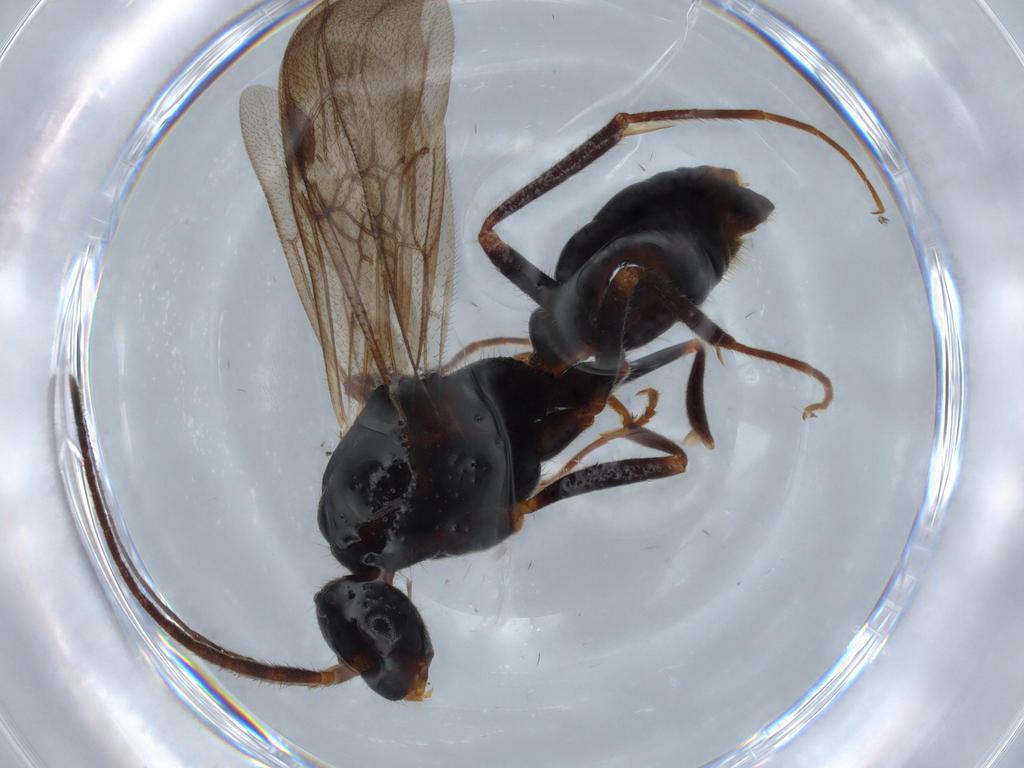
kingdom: Animalia
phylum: Arthropoda
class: Insecta
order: Hymenoptera
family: Formicidae
